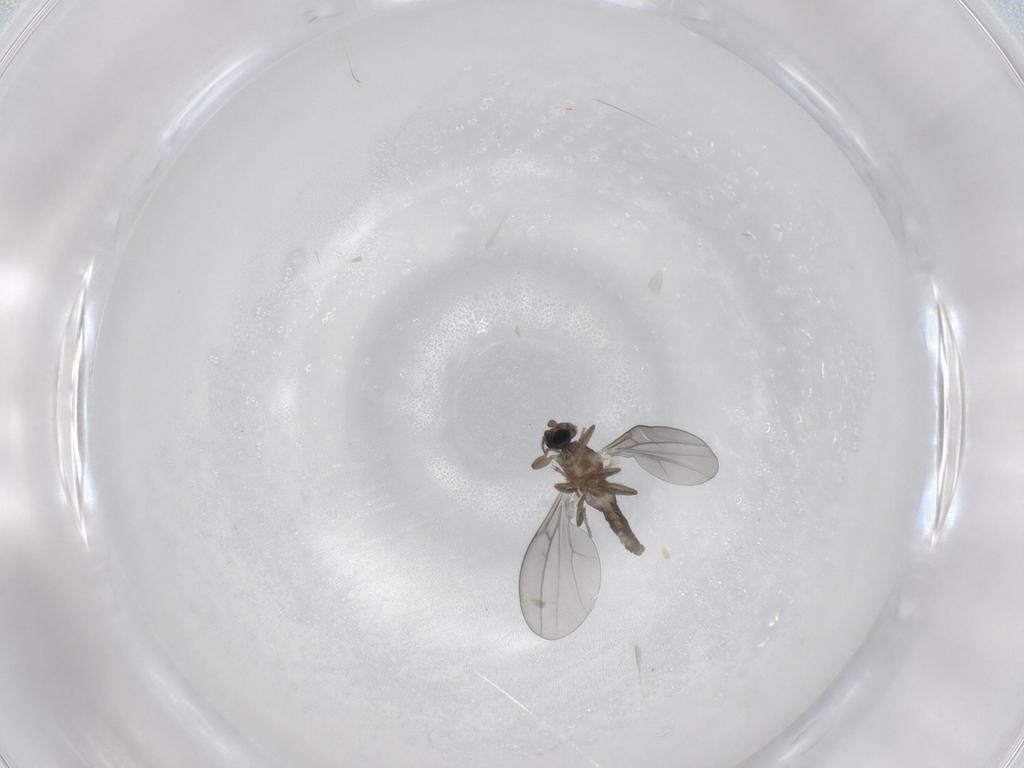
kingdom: Animalia
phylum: Arthropoda
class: Insecta
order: Diptera
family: Cecidomyiidae
